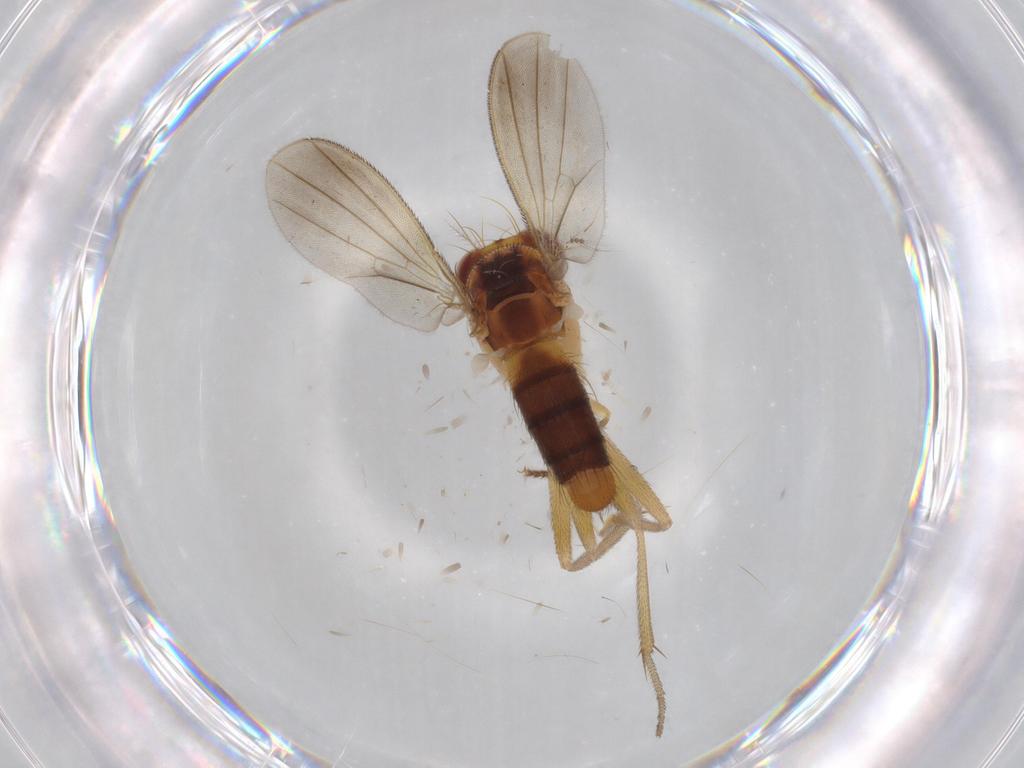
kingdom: Animalia
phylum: Arthropoda
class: Insecta
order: Diptera
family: Clusiidae
